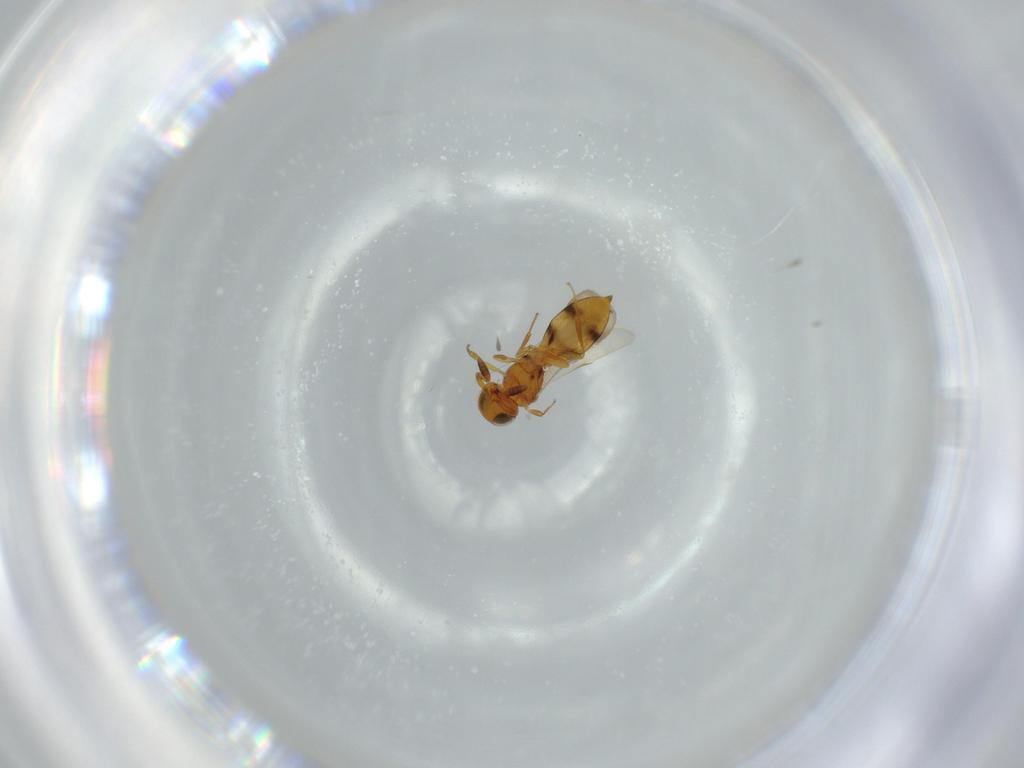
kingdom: Animalia
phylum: Arthropoda
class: Insecta
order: Hymenoptera
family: Scelionidae
